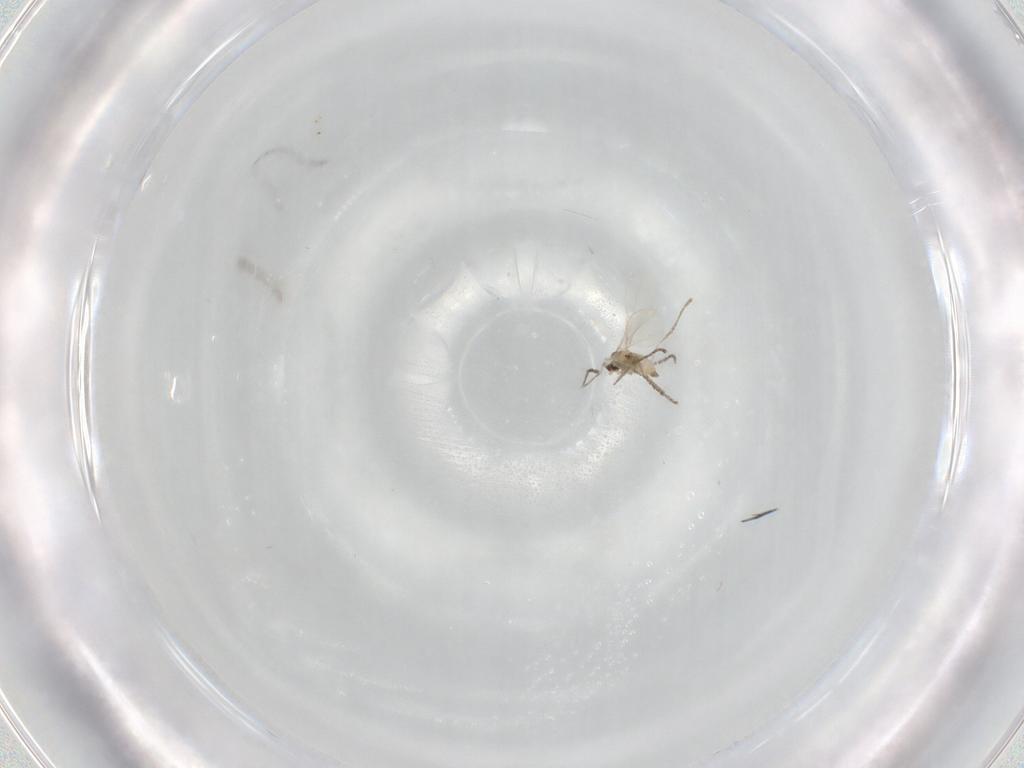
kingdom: Animalia
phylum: Arthropoda
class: Insecta
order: Diptera
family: Cecidomyiidae
